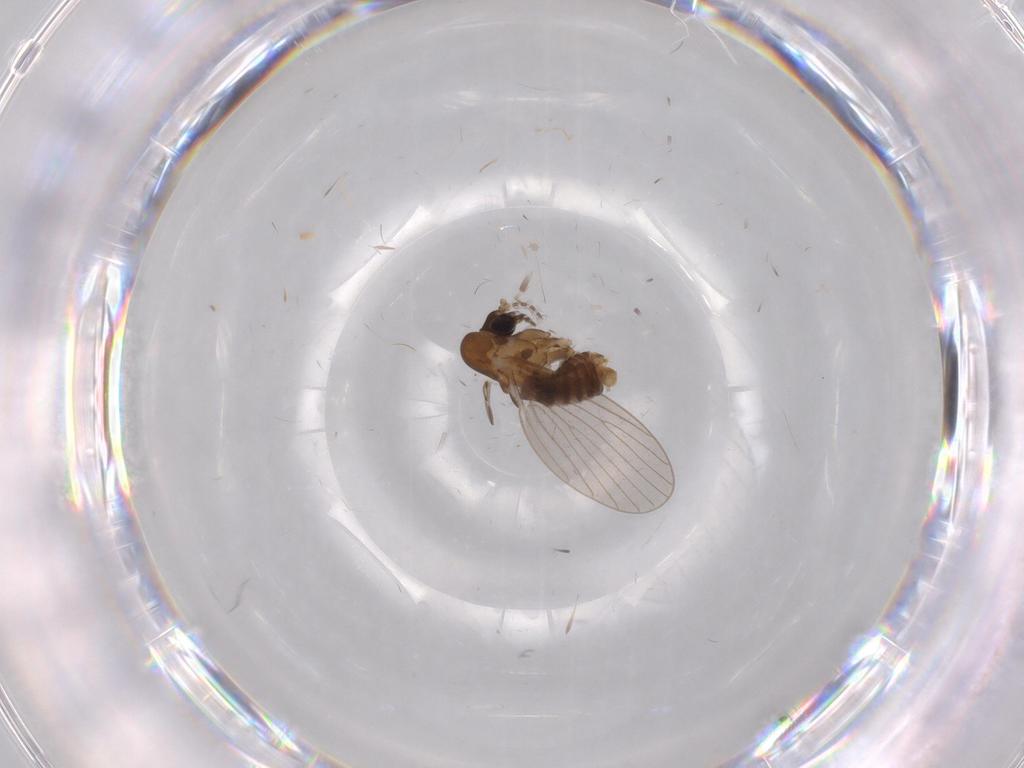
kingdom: Animalia
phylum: Arthropoda
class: Insecta
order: Diptera
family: Psychodidae
